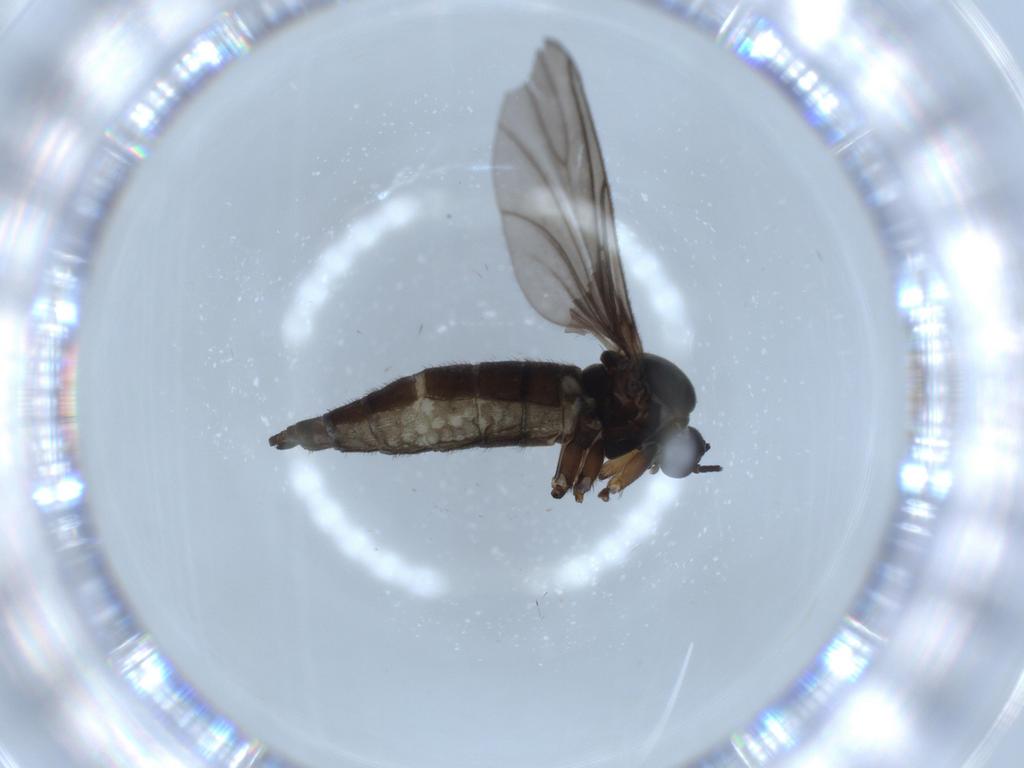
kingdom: Animalia
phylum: Arthropoda
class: Insecta
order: Diptera
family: Sciaridae
